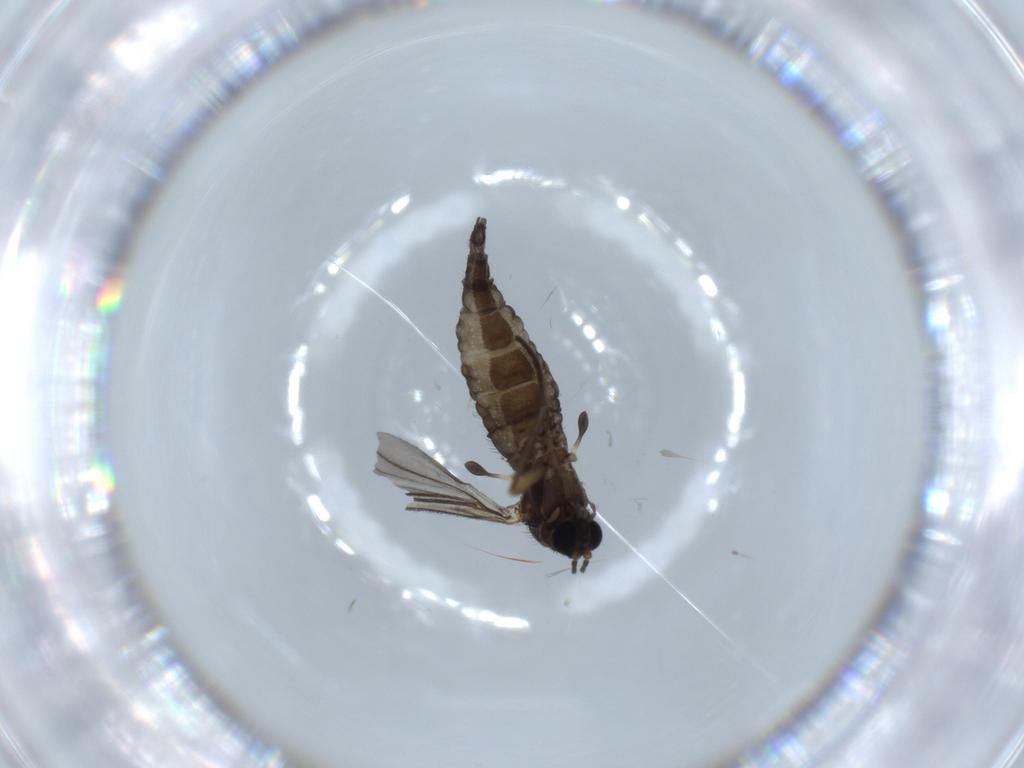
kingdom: Animalia
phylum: Arthropoda
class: Insecta
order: Diptera
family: Sciaridae
